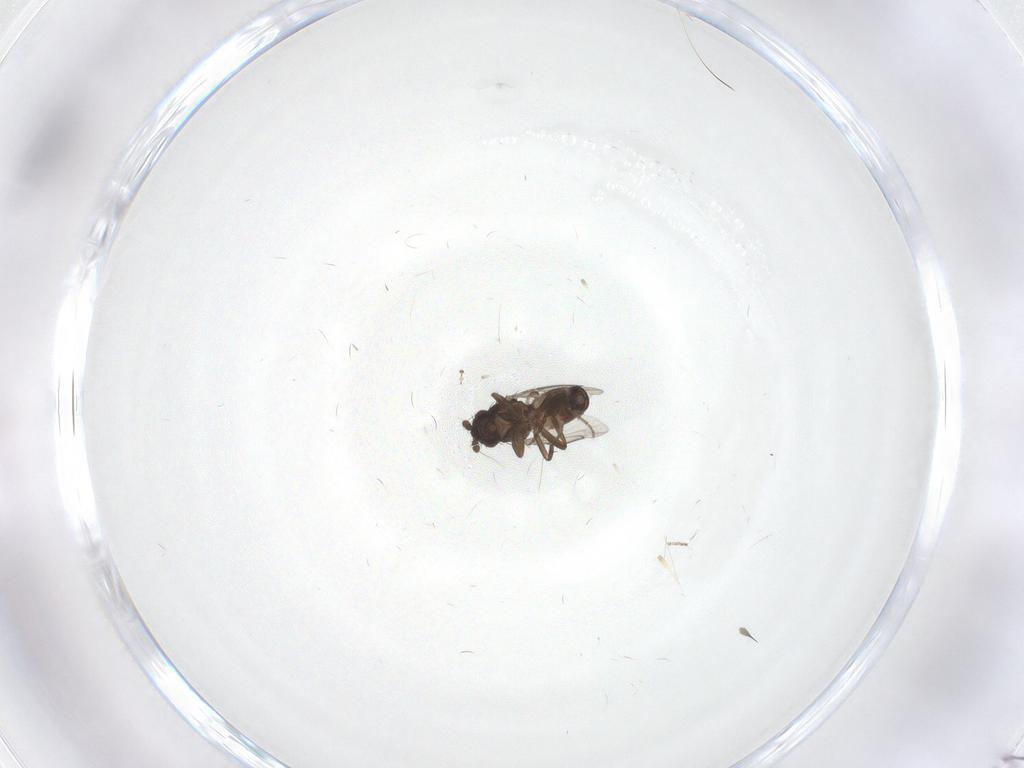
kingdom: Animalia
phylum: Arthropoda
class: Insecta
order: Diptera
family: Sphaeroceridae
